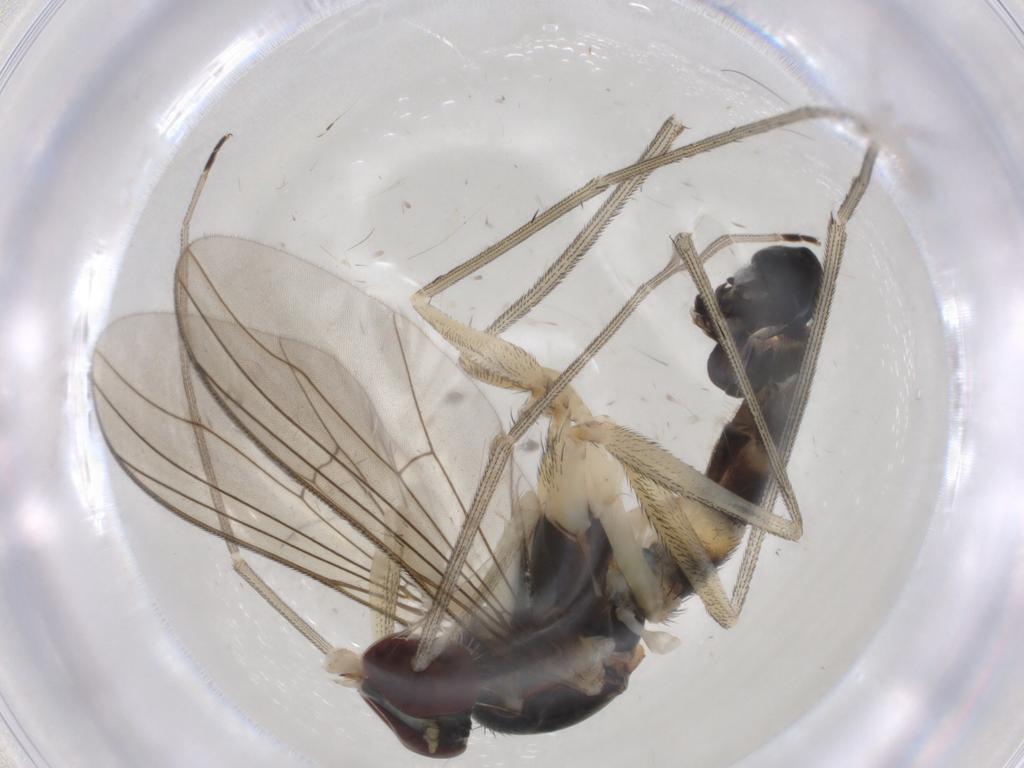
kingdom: Animalia
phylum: Arthropoda
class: Insecta
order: Diptera
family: Dolichopodidae
